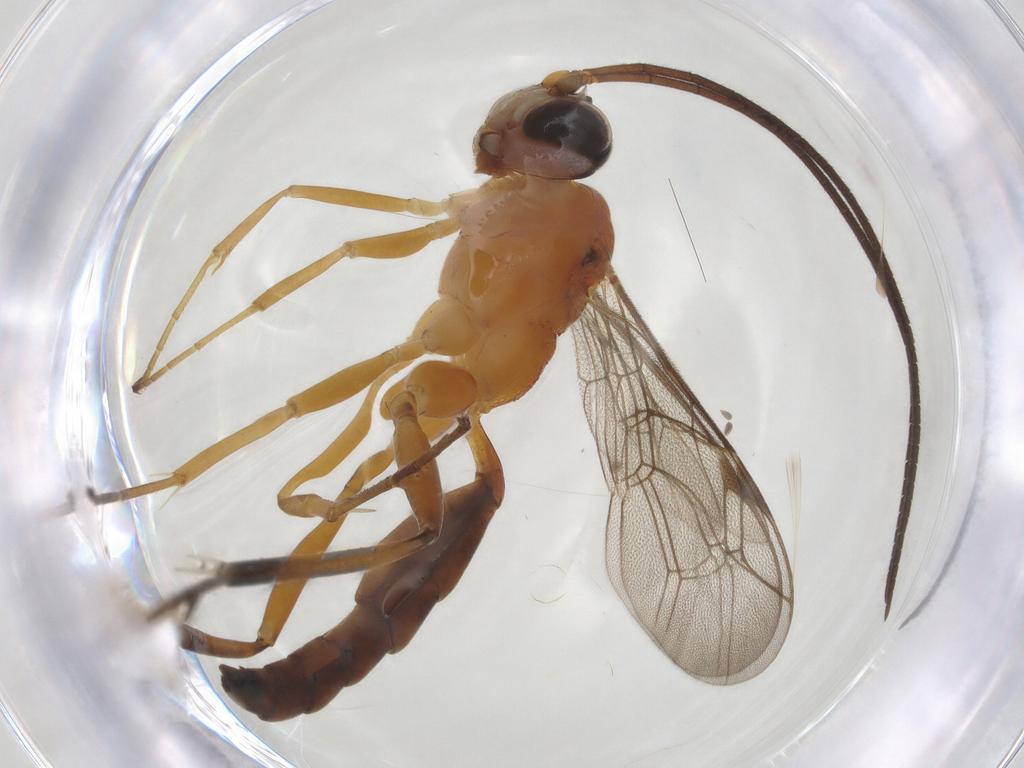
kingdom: Animalia
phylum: Arthropoda
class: Insecta
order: Hymenoptera
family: Ichneumonidae
